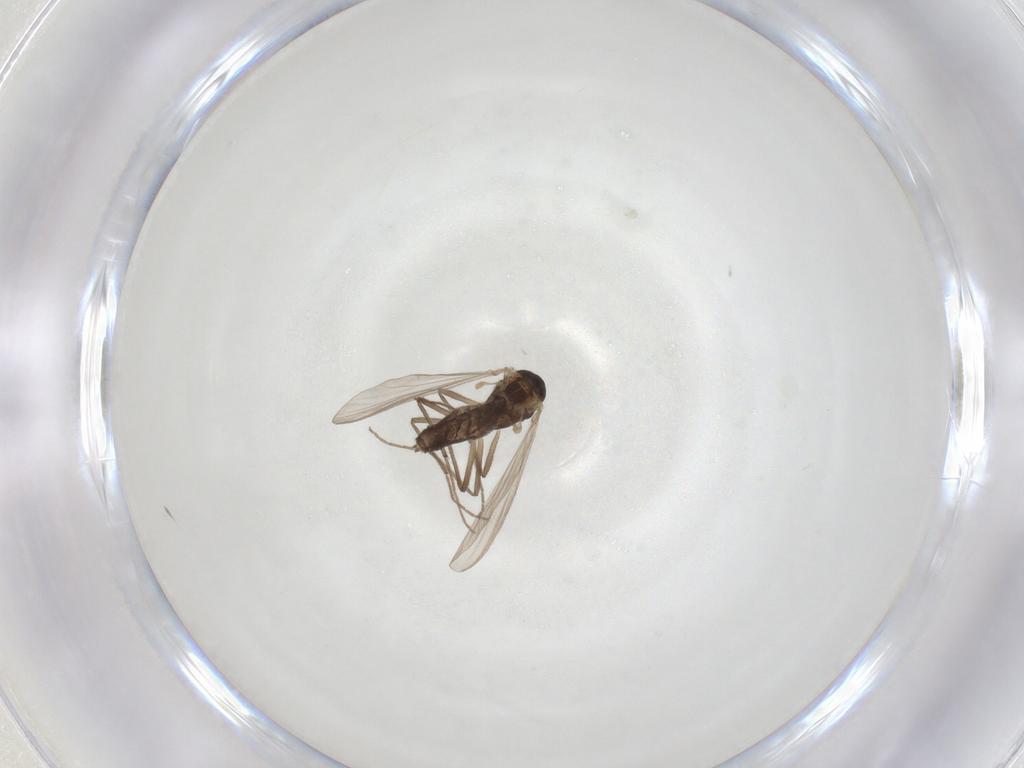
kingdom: Animalia
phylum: Arthropoda
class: Insecta
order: Diptera
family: Chironomidae
